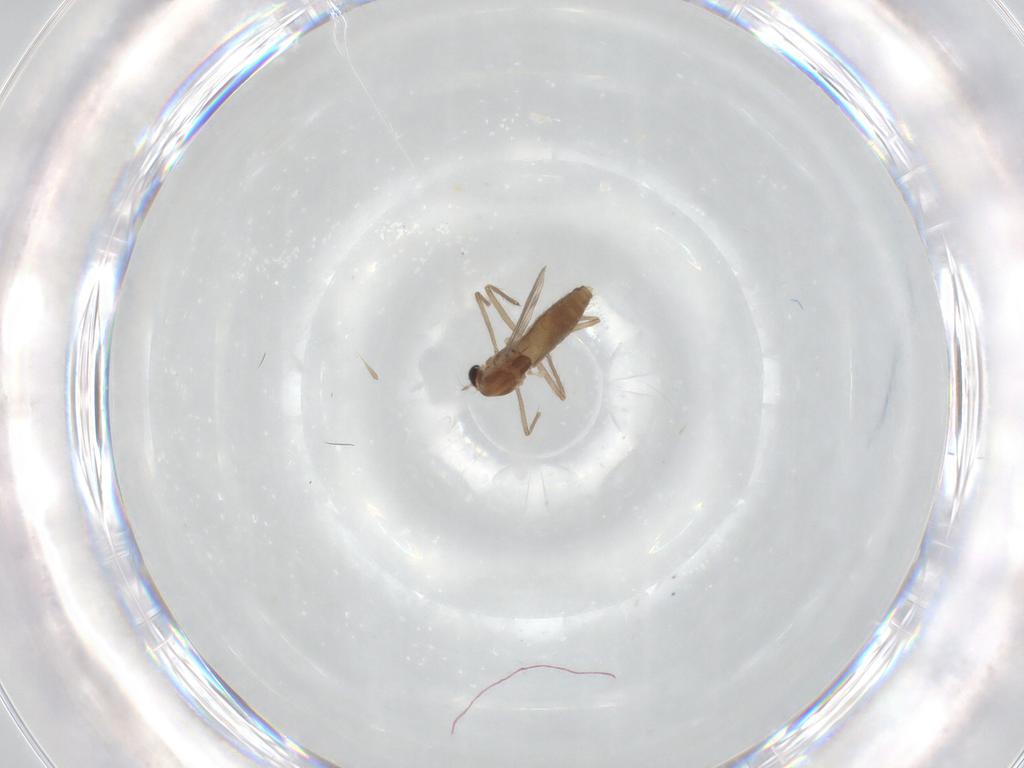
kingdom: Animalia
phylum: Arthropoda
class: Insecta
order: Diptera
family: Chironomidae
